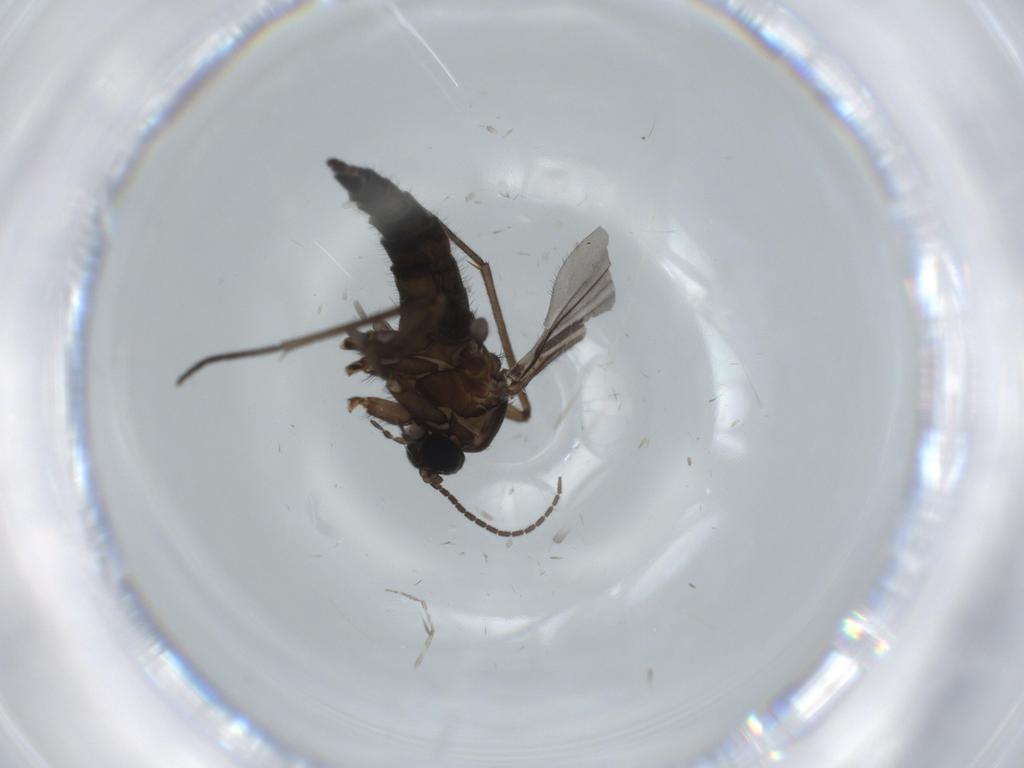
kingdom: Animalia
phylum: Arthropoda
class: Insecta
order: Diptera
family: Sciaridae
